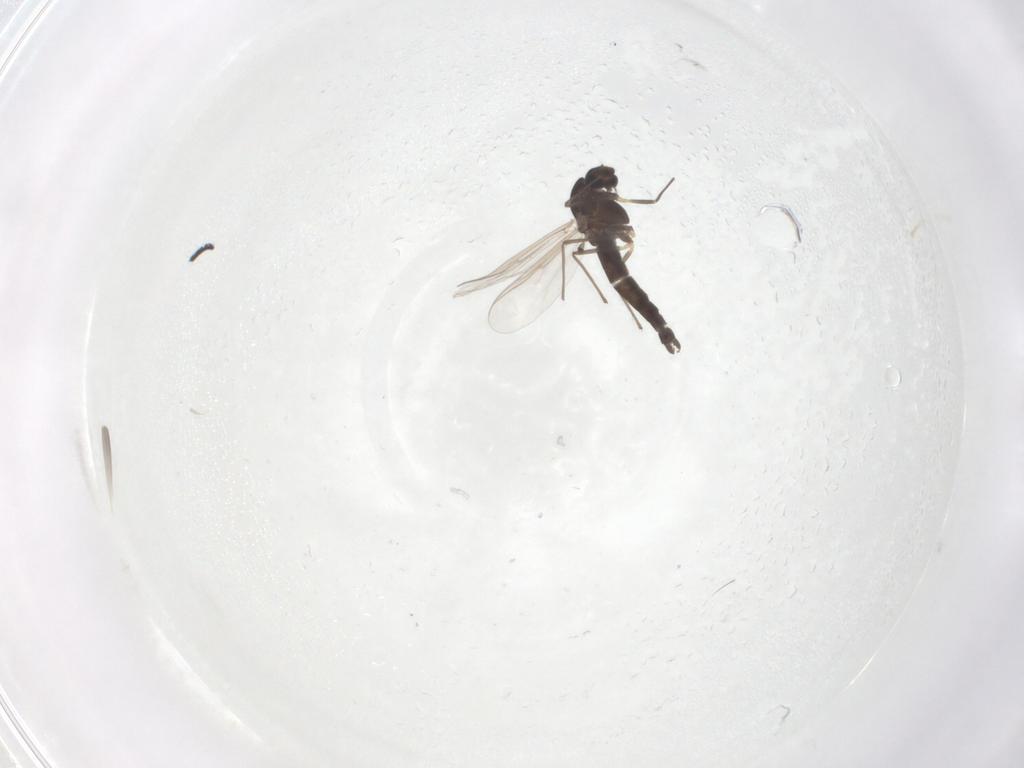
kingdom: Animalia
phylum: Arthropoda
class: Insecta
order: Diptera
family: Chironomidae
